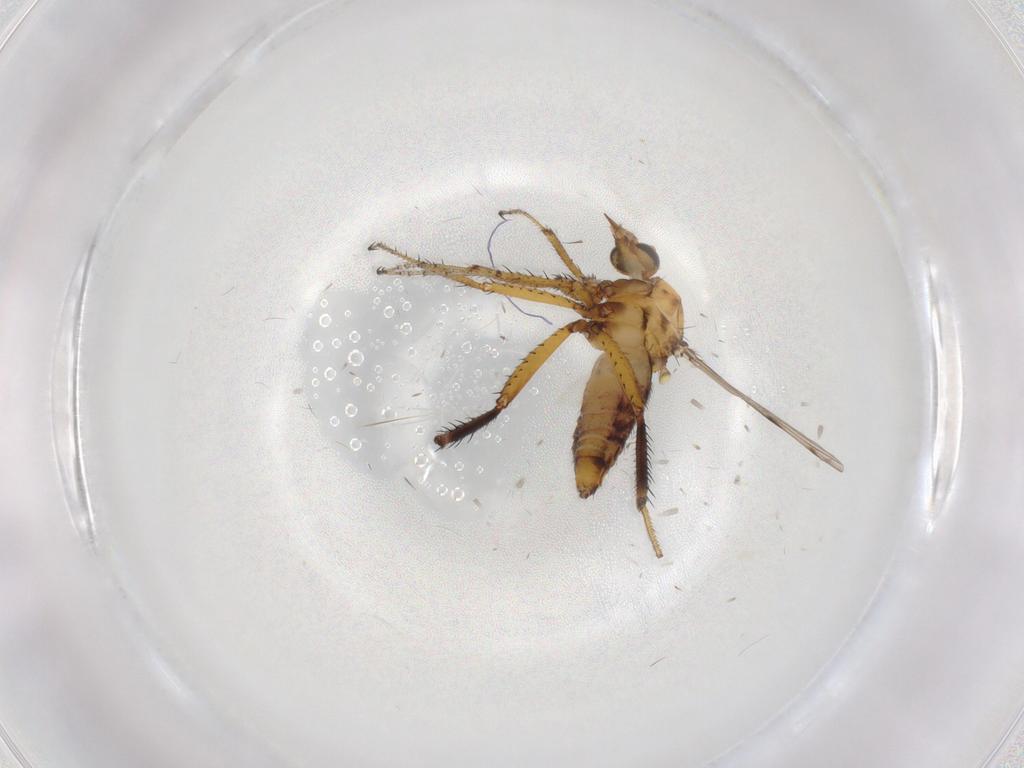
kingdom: Animalia
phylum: Arthropoda
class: Insecta
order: Diptera
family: Ceratopogonidae
